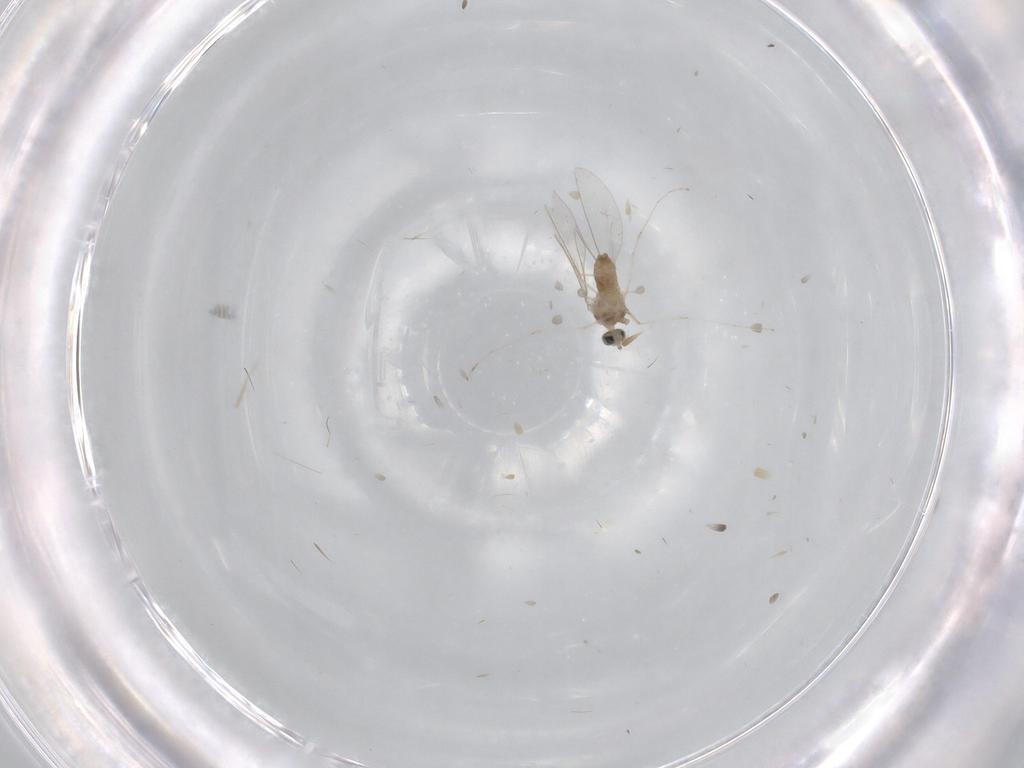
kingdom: Animalia
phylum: Arthropoda
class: Insecta
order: Diptera
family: Cecidomyiidae
